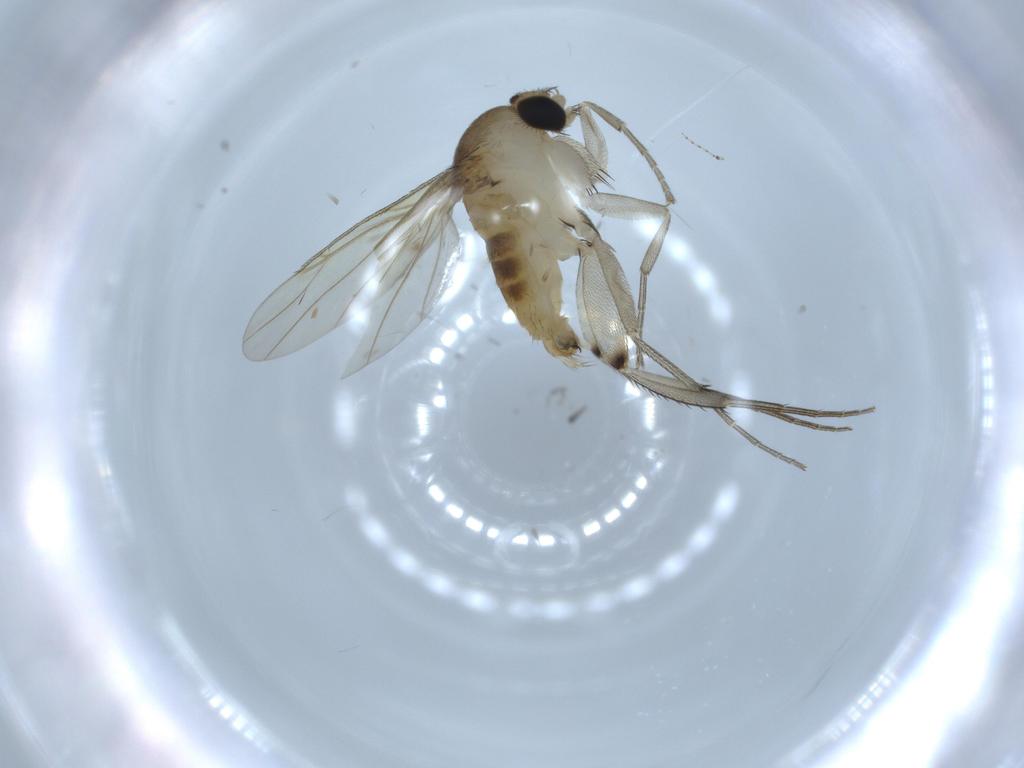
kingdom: Animalia
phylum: Arthropoda
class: Insecta
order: Diptera
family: Cecidomyiidae
